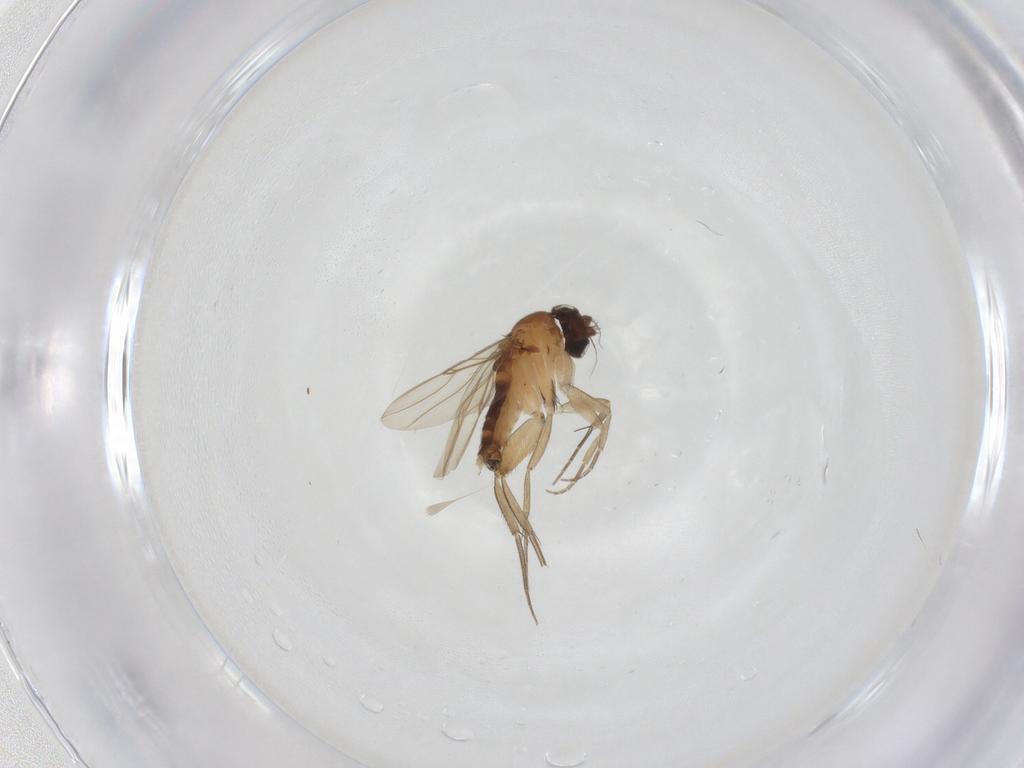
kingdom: Animalia
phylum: Arthropoda
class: Insecta
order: Diptera
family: Phoridae
